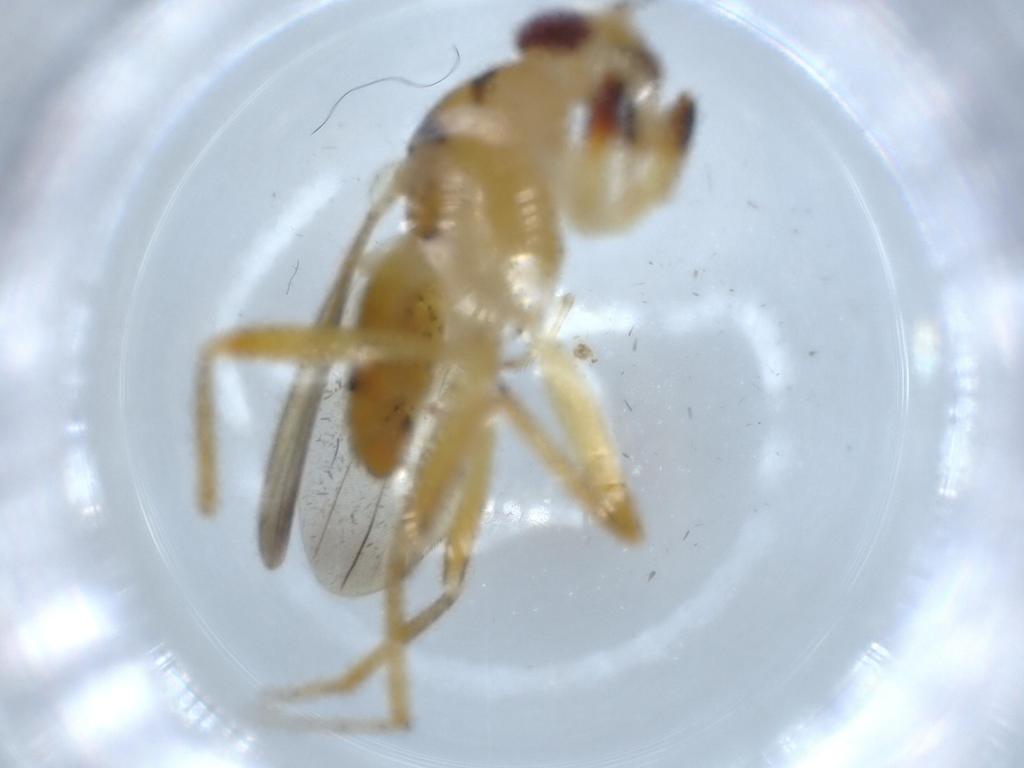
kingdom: Animalia
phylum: Arthropoda
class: Insecta
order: Diptera
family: Clusiidae
